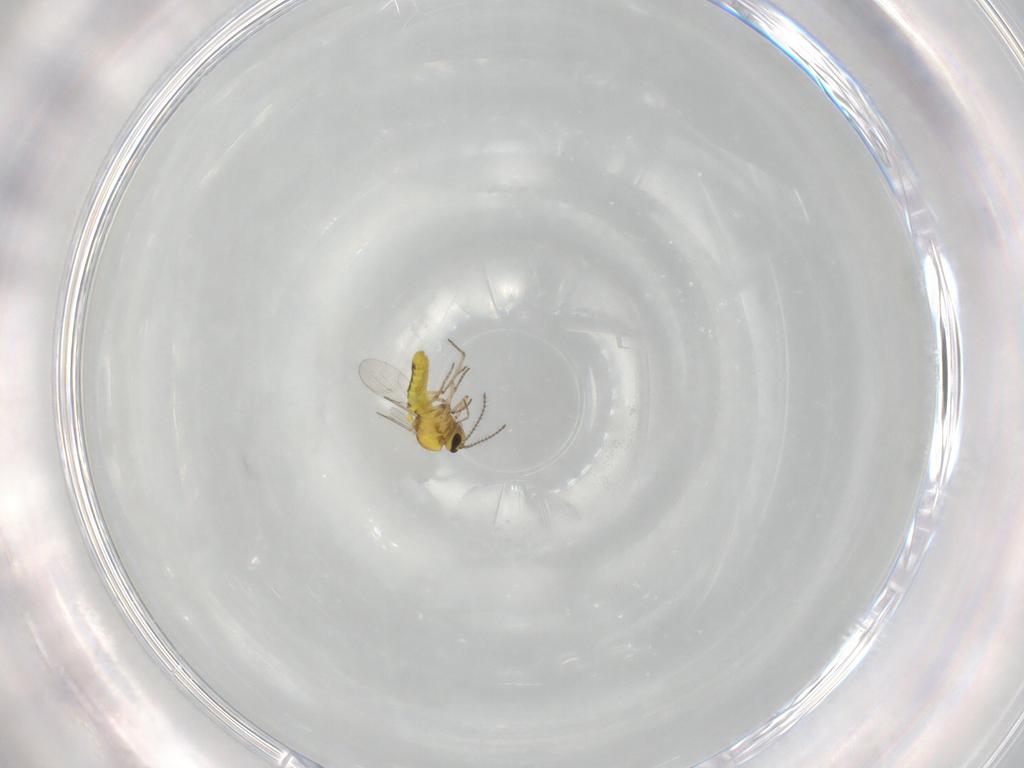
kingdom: Animalia
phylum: Arthropoda
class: Insecta
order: Diptera
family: Ceratopogonidae
